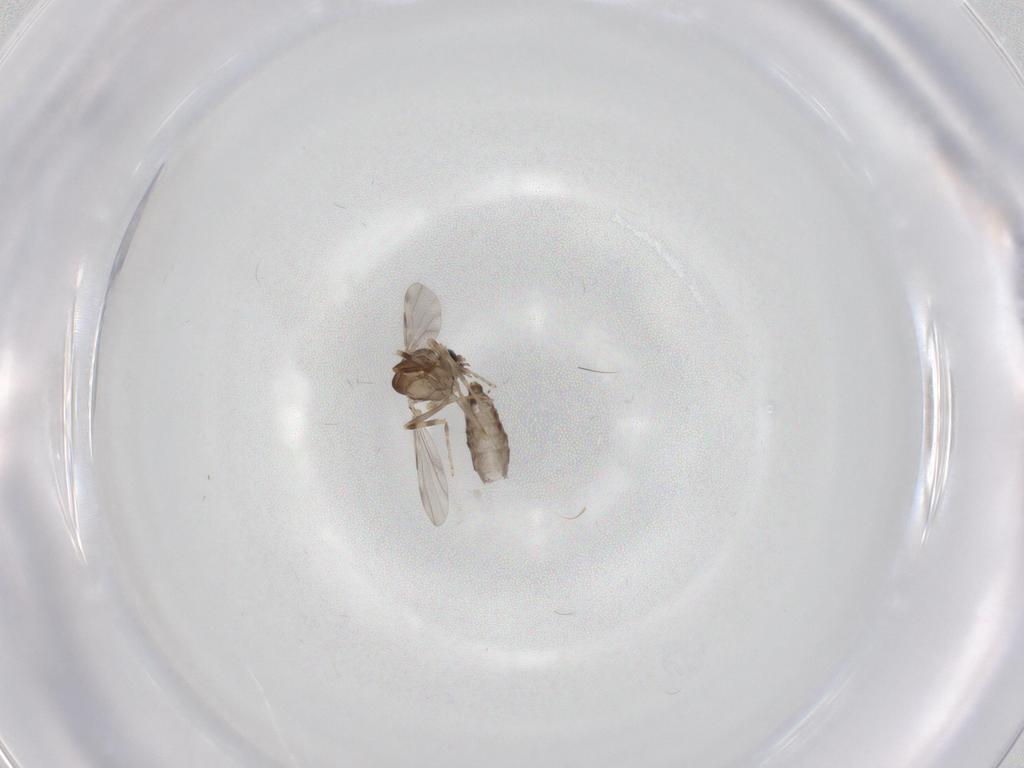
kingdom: Animalia
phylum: Arthropoda
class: Insecta
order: Diptera
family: Ceratopogonidae
